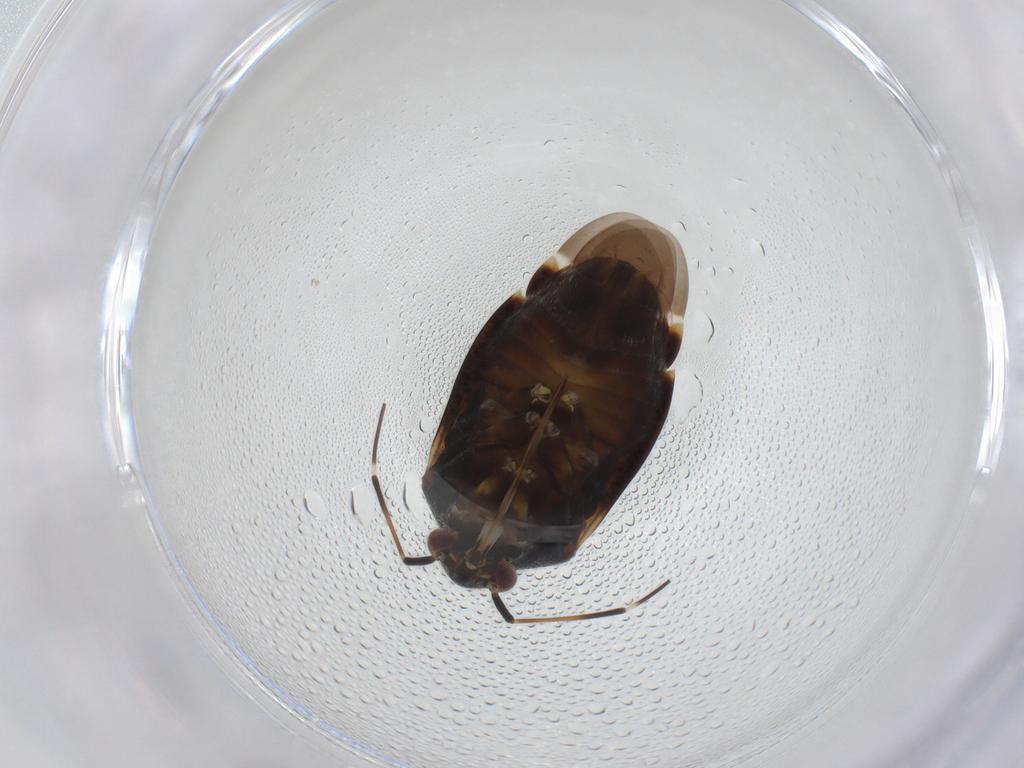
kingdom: Animalia
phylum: Arthropoda
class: Insecta
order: Hemiptera
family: Miridae
